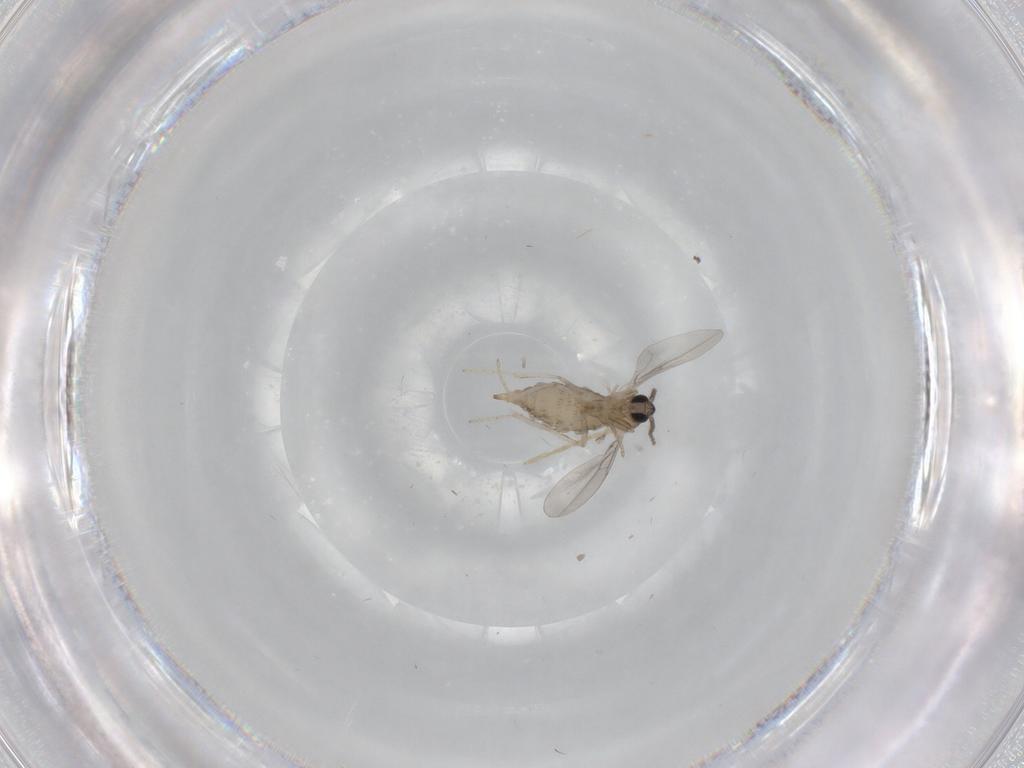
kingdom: Animalia
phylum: Arthropoda
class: Insecta
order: Diptera
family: Cecidomyiidae
